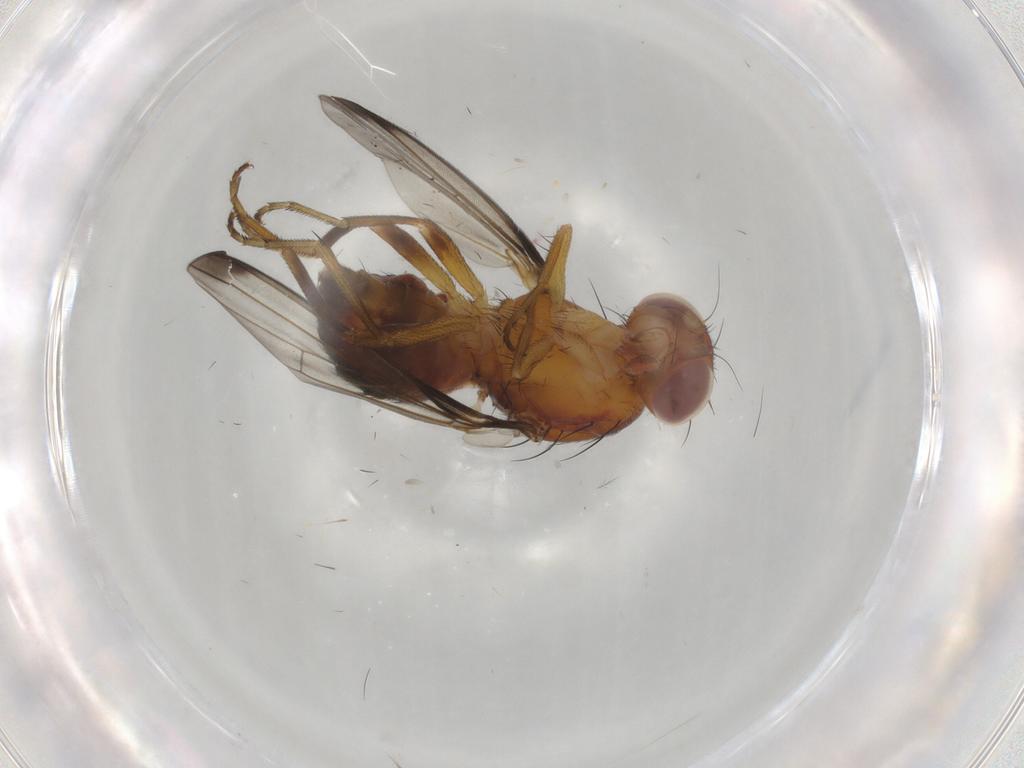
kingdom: Animalia
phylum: Arthropoda
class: Insecta
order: Diptera
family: Piophilidae
